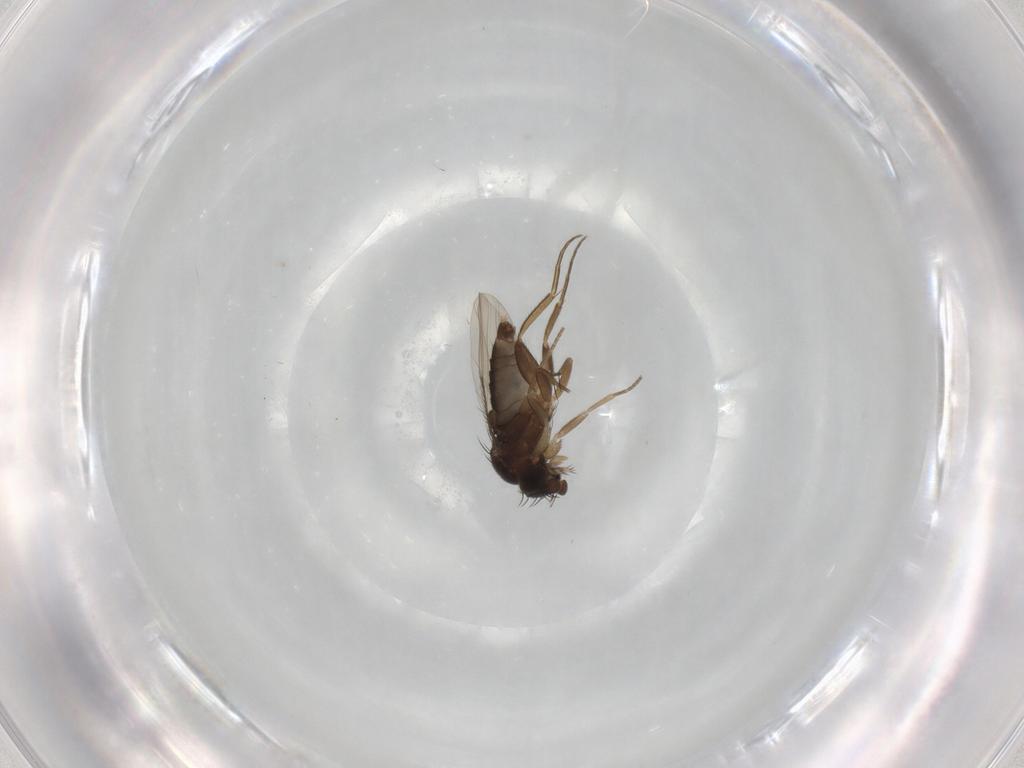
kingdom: Animalia
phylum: Arthropoda
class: Insecta
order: Diptera
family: Phoridae
